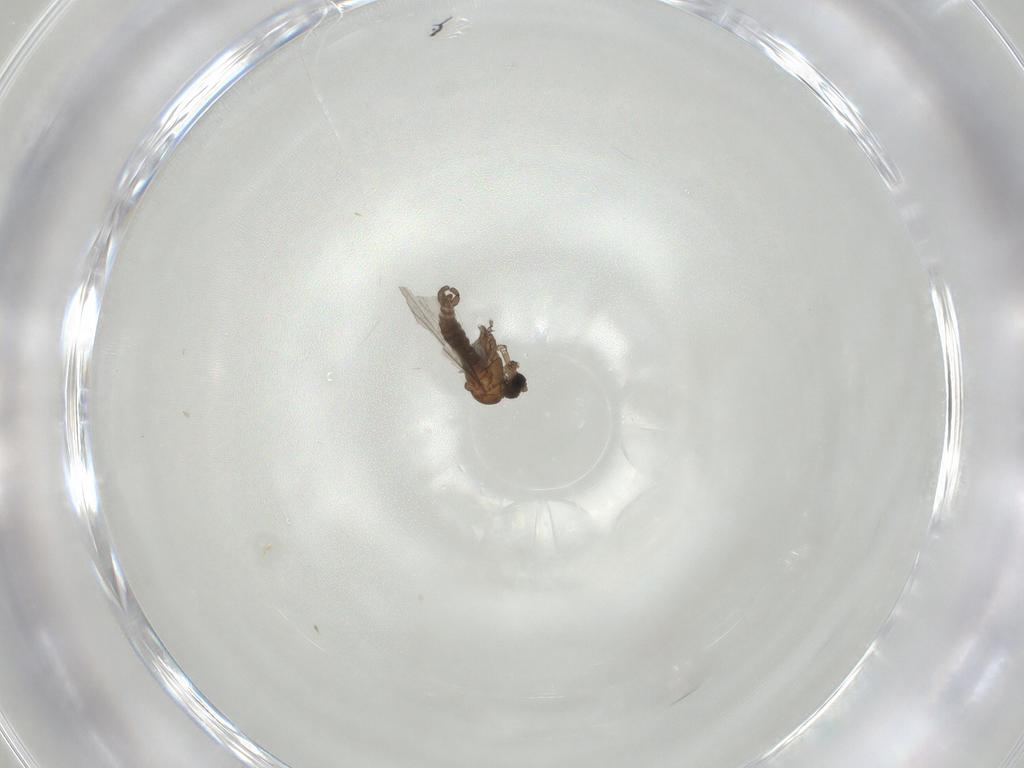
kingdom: Animalia
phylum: Arthropoda
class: Insecta
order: Diptera
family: Sciaridae
